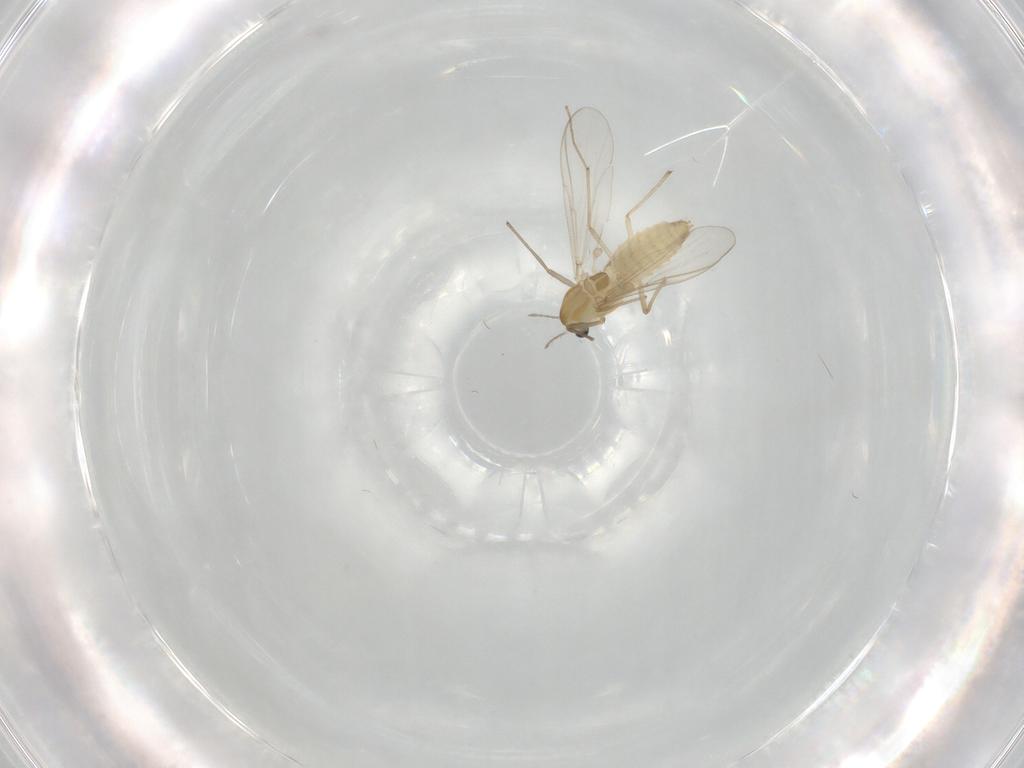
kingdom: Animalia
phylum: Arthropoda
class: Insecta
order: Diptera
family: Chironomidae
